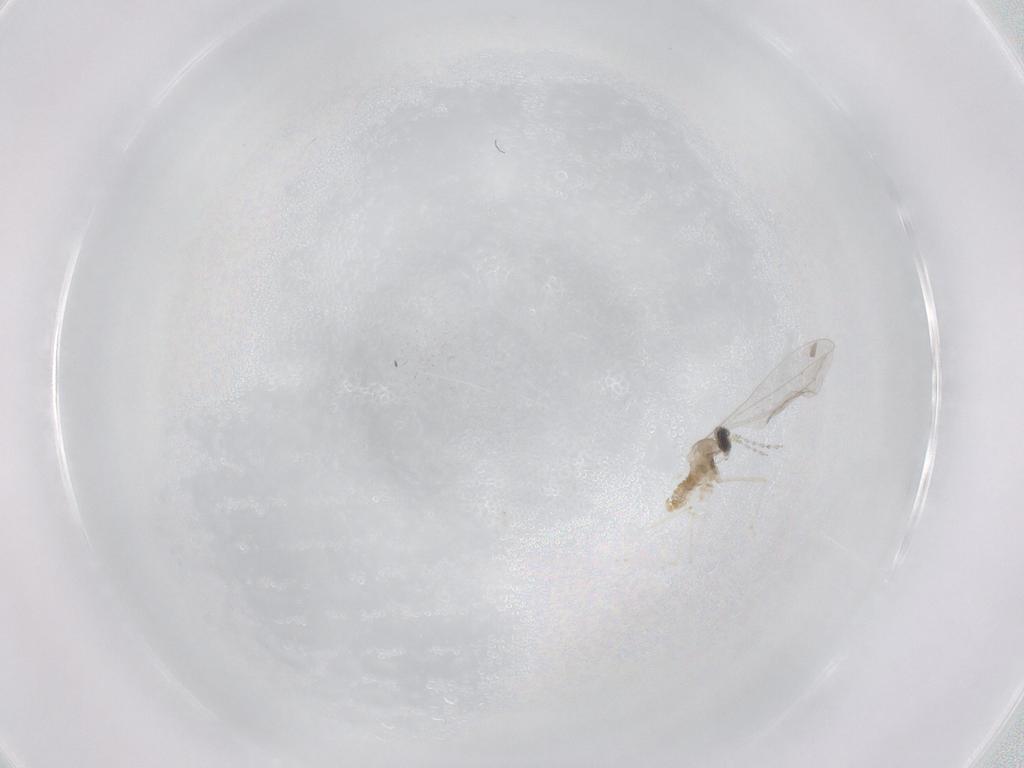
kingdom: Animalia
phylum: Arthropoda
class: Insecta
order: Diptera
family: Cecidomyiidae
